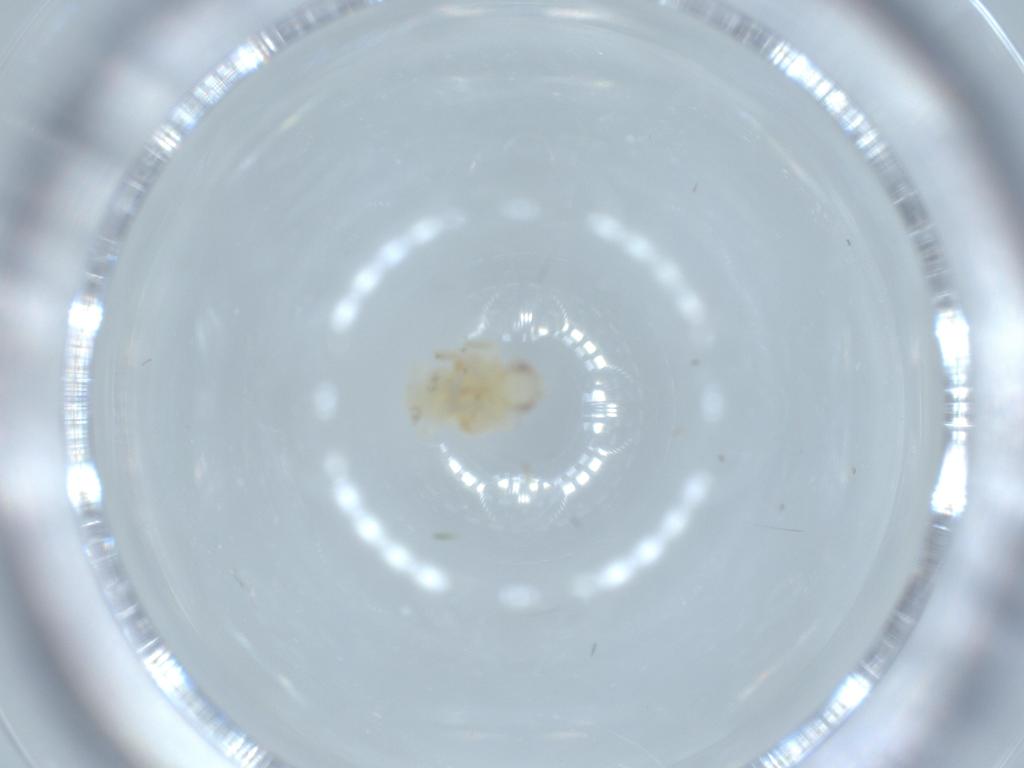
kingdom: Animalia
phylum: Arthropoda
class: Insecta
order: Hemiptera
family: Nogodinidae
